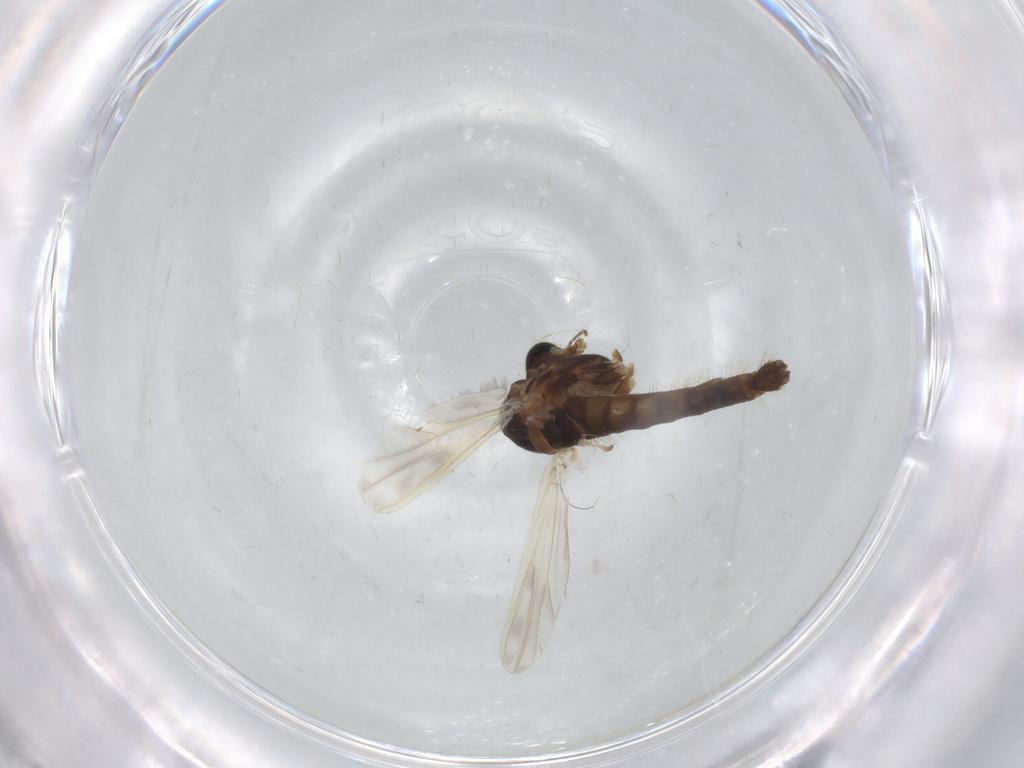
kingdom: Animalia
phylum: Arthropoda
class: Insecta
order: Diptera
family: Chironomidae
